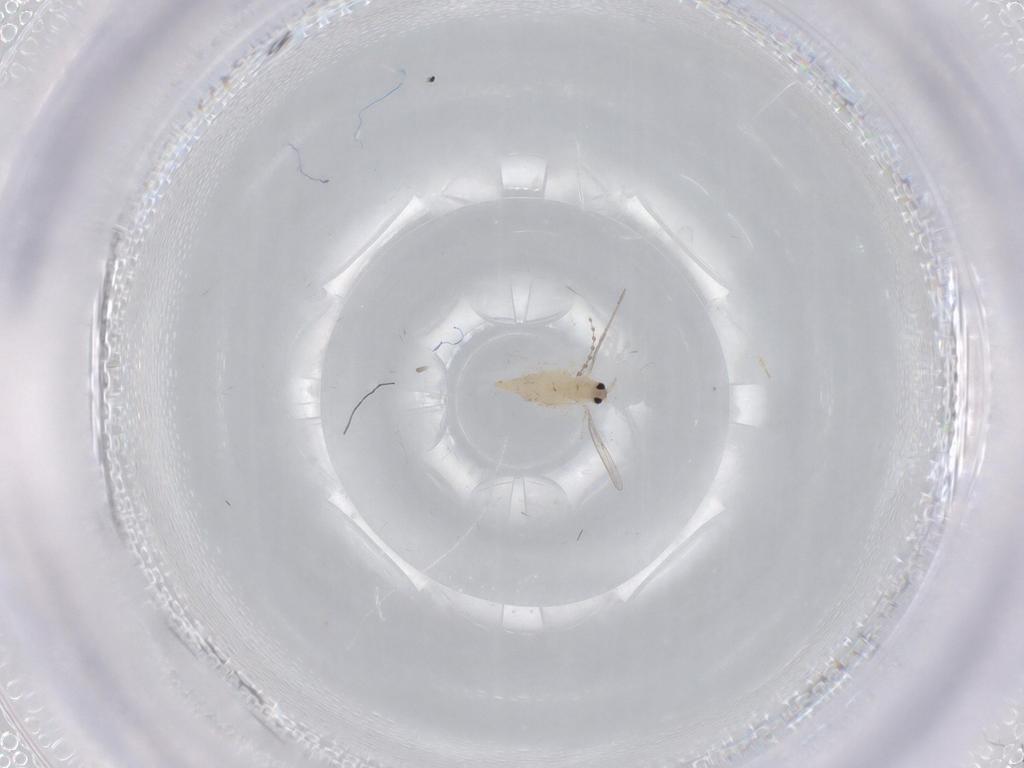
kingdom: Animalia
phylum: Arthropoda
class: Insecta
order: Diptera
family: Cecidomyiidae
